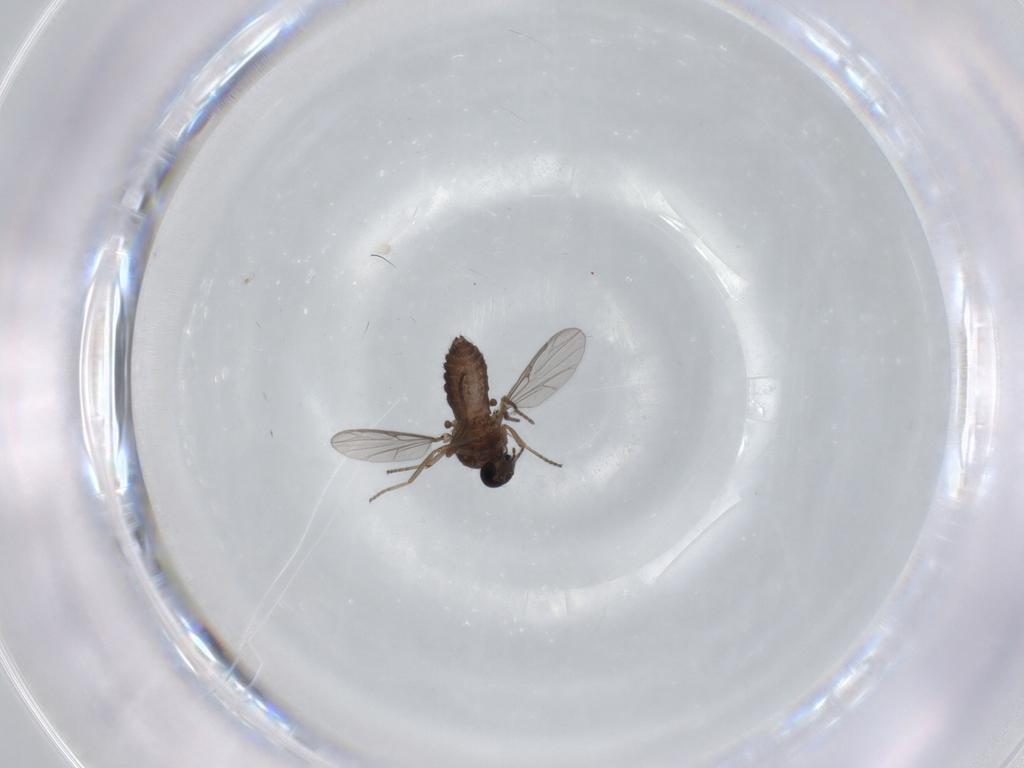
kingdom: Animalia
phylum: Arthropoda
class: Insecta
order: Diptera
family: Ceratopogonidae
